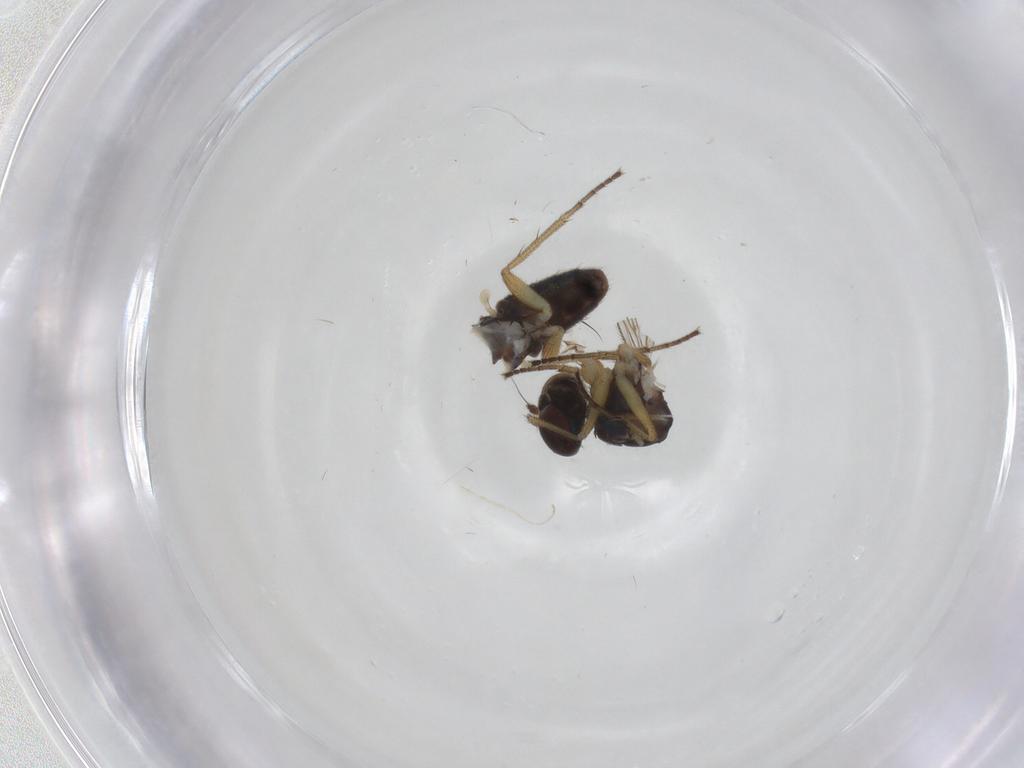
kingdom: Animalia
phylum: Arthropoda
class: Insecta
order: Diptera
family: Dolichopodidae
